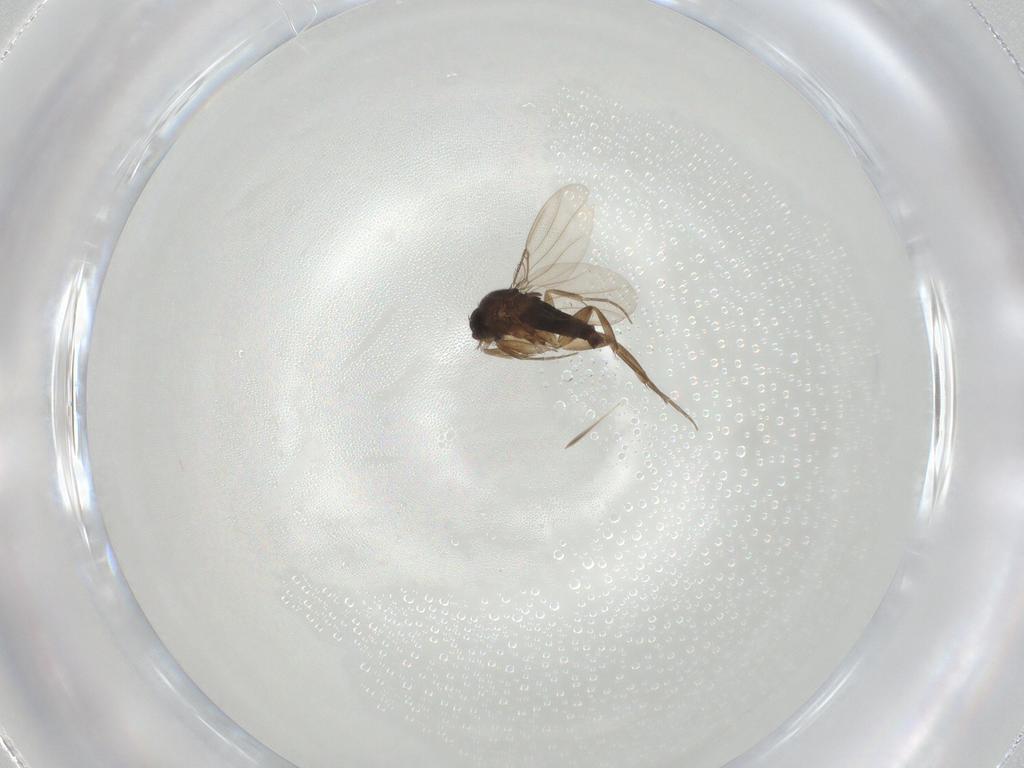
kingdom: Animalia
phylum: Arthropoda
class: Insecta
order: Diptera
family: Phoridae
